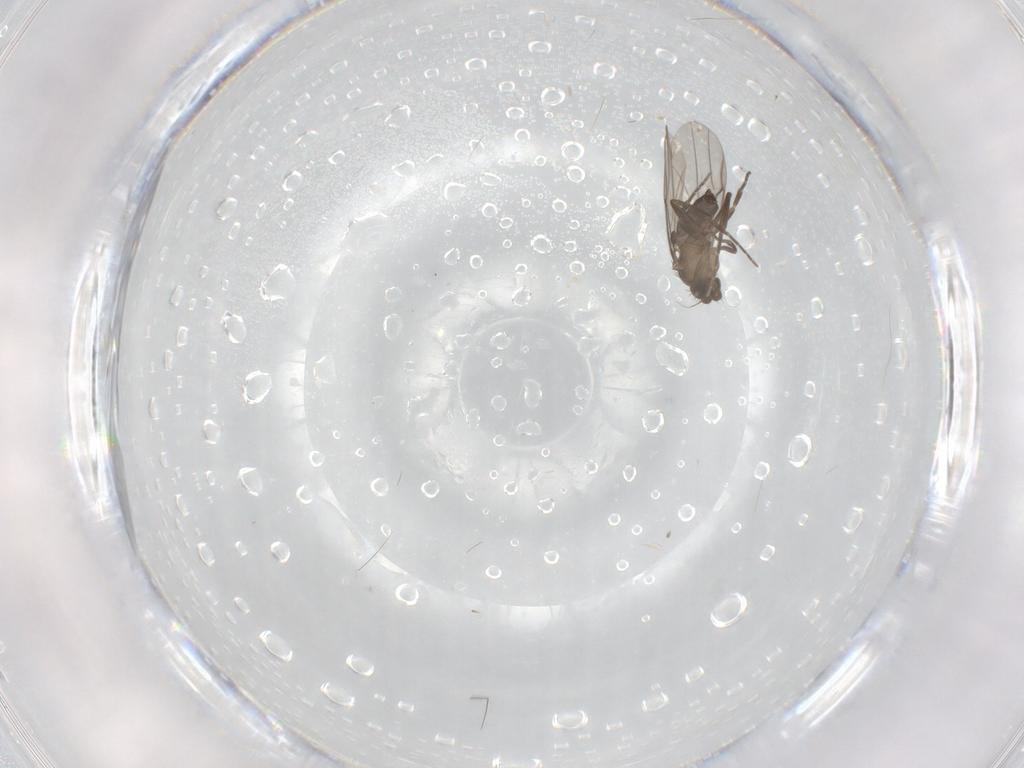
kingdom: Animalia
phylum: Arthropoda
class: Insecta
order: Diptera
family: Phoridae
